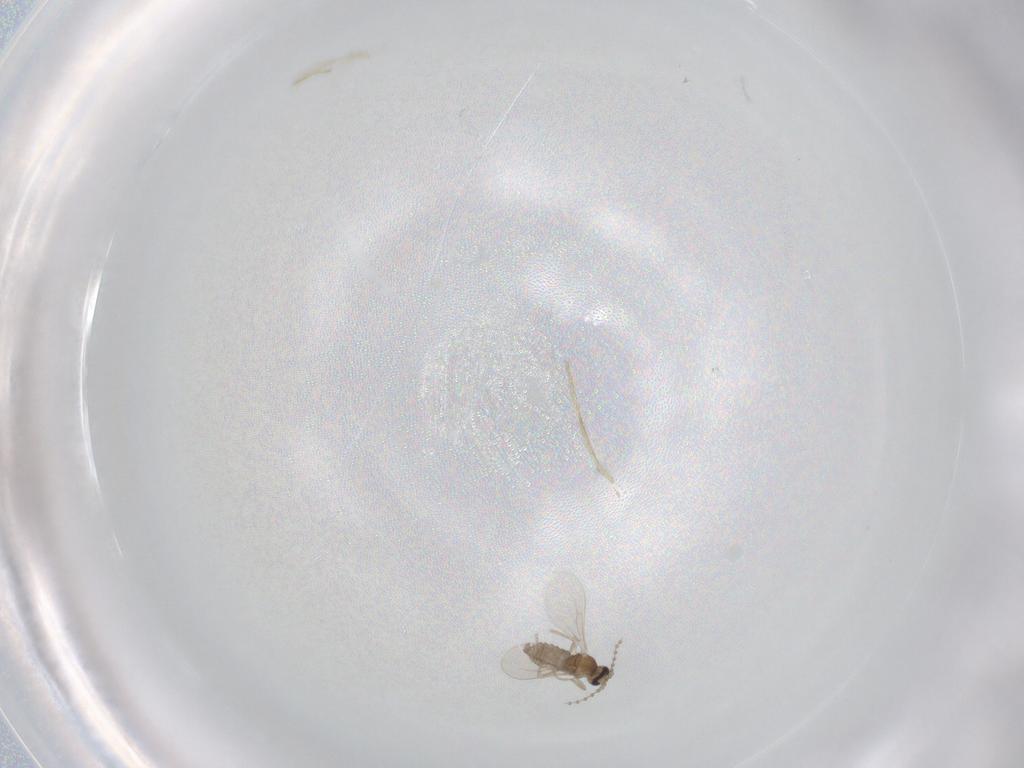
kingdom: Animalia
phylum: Arthropoda
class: Insecta
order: Diptera
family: Cecidomyiidae
